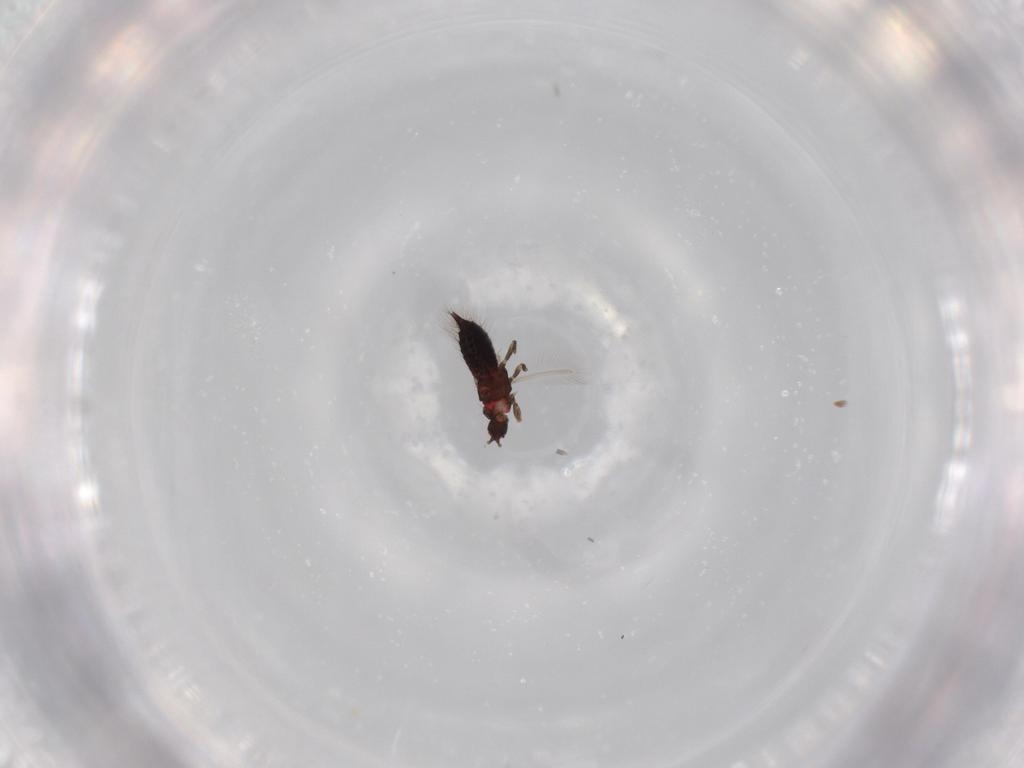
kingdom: Animalia
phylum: Arthropoda
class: Insecta
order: Thysanoptera
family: Phlaeothripidae
